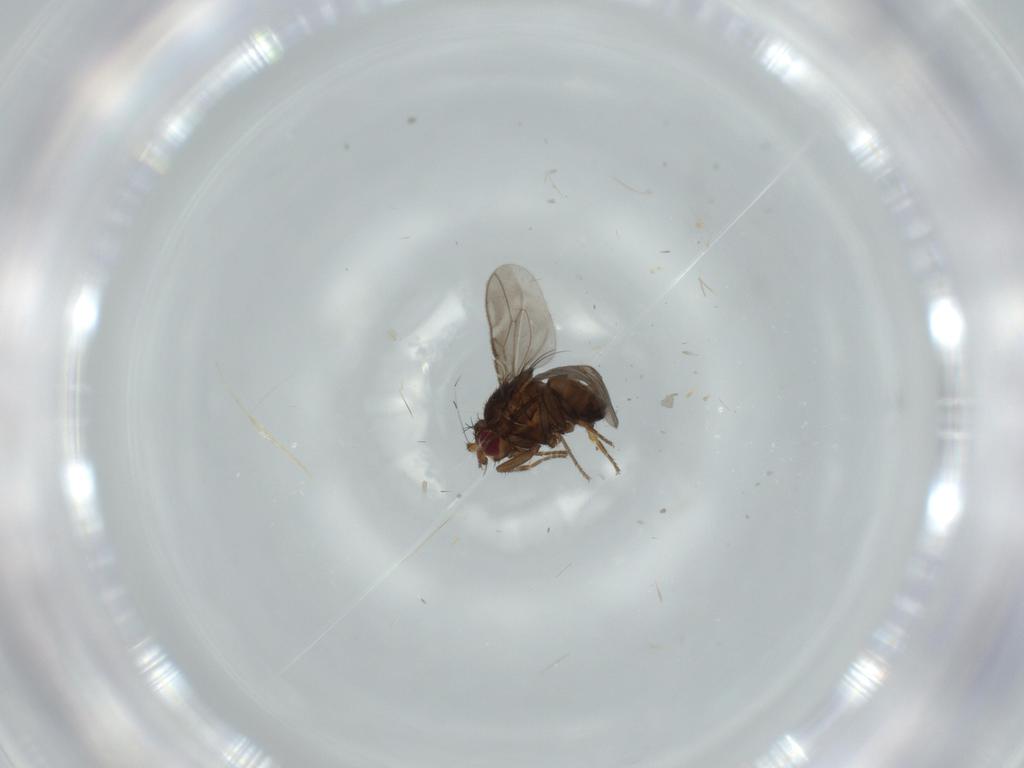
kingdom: Animalia
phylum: Arthropoda
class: Insecta
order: Diptera
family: Sphaeroceridae
